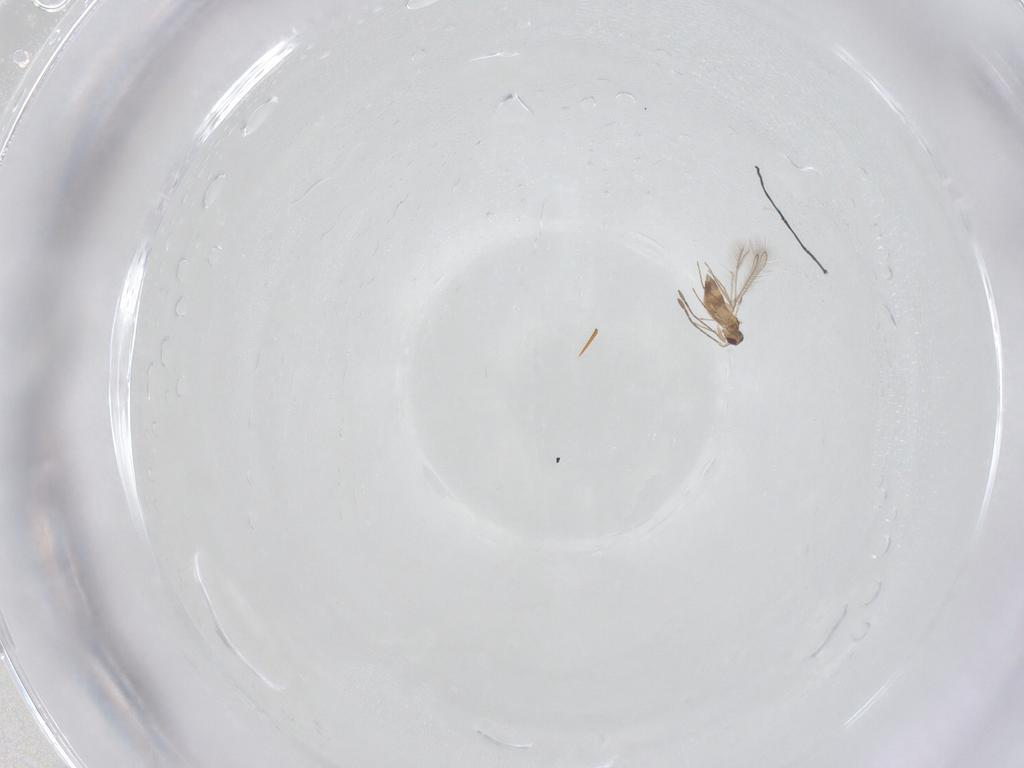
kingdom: Animalia
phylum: Arthropoda
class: Insecta
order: Hymenoptera
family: Mymaridae
